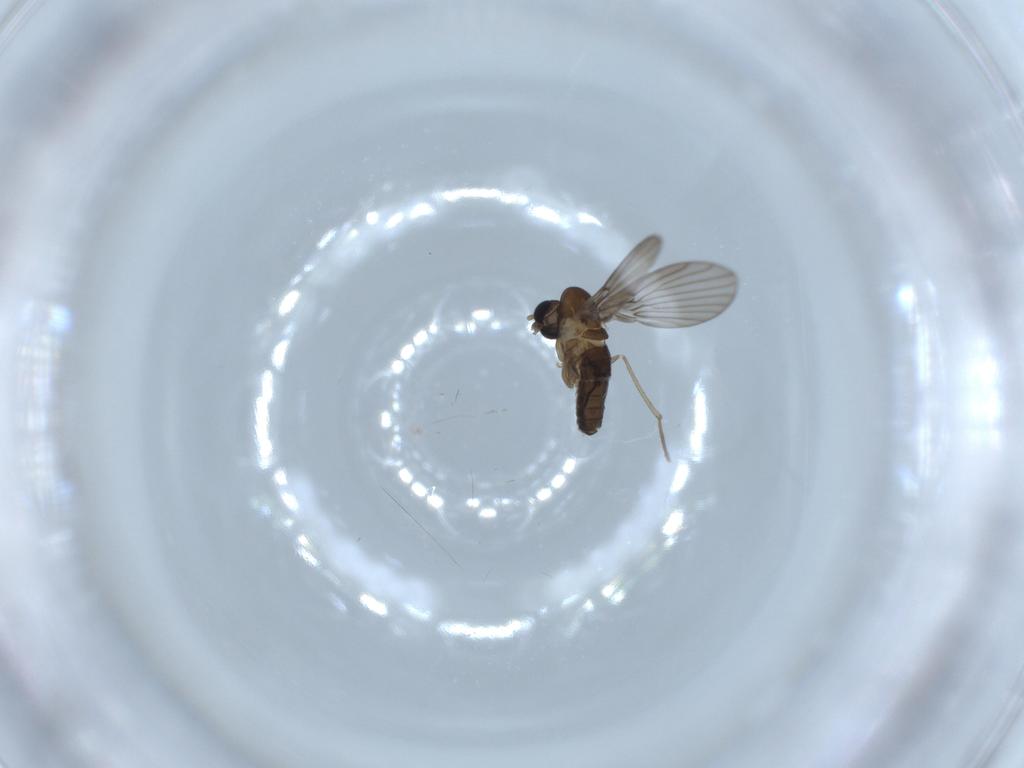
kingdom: Animalia
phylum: Arthropoda
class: Insecta
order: Diptera
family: Psychodidae
